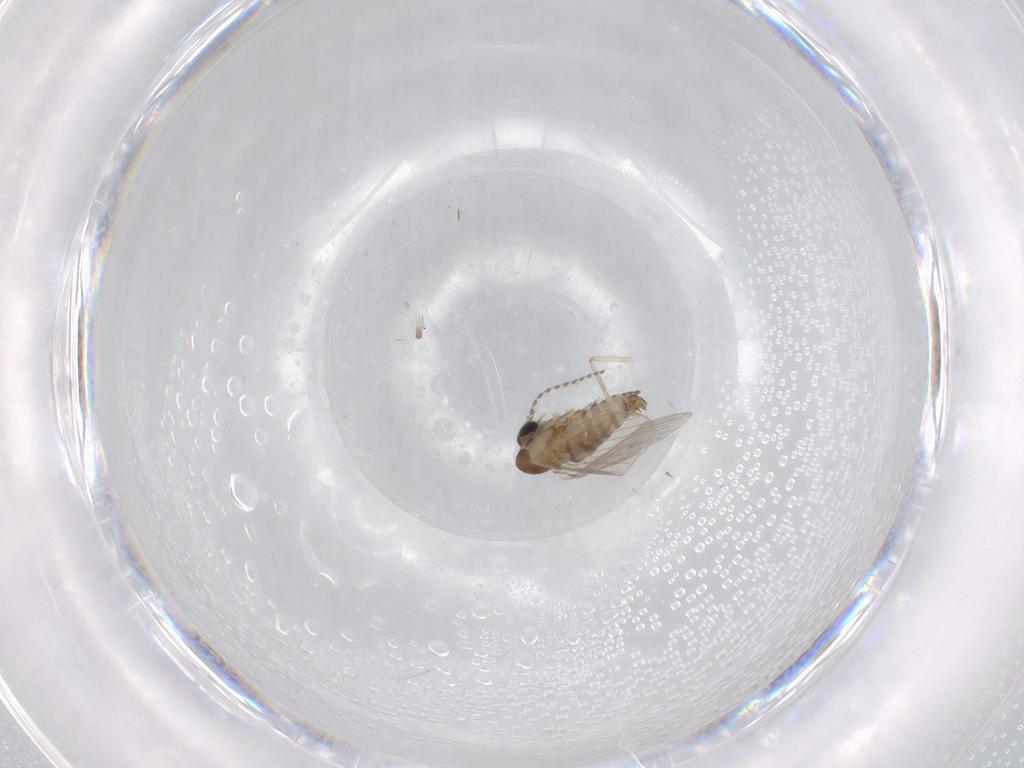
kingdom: Animalia
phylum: Arthropoda
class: Insecta
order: Diptera
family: Psychodidae
